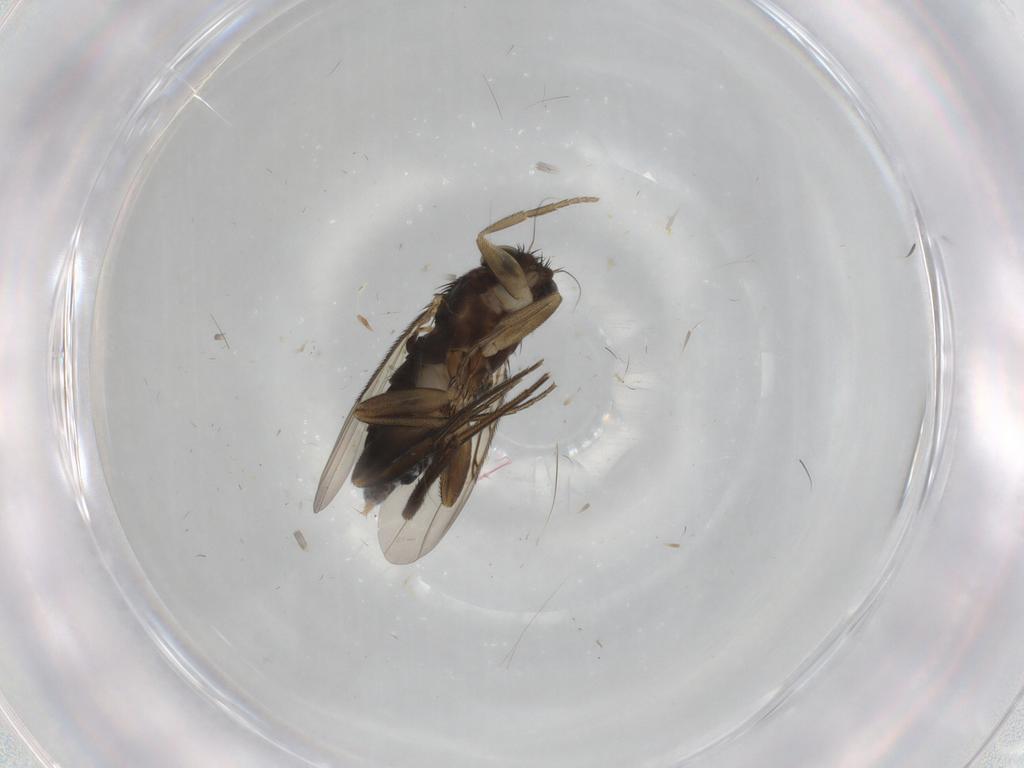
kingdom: Animalia
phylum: Arthropoda
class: Insecta
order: Diptera
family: Phoridae
